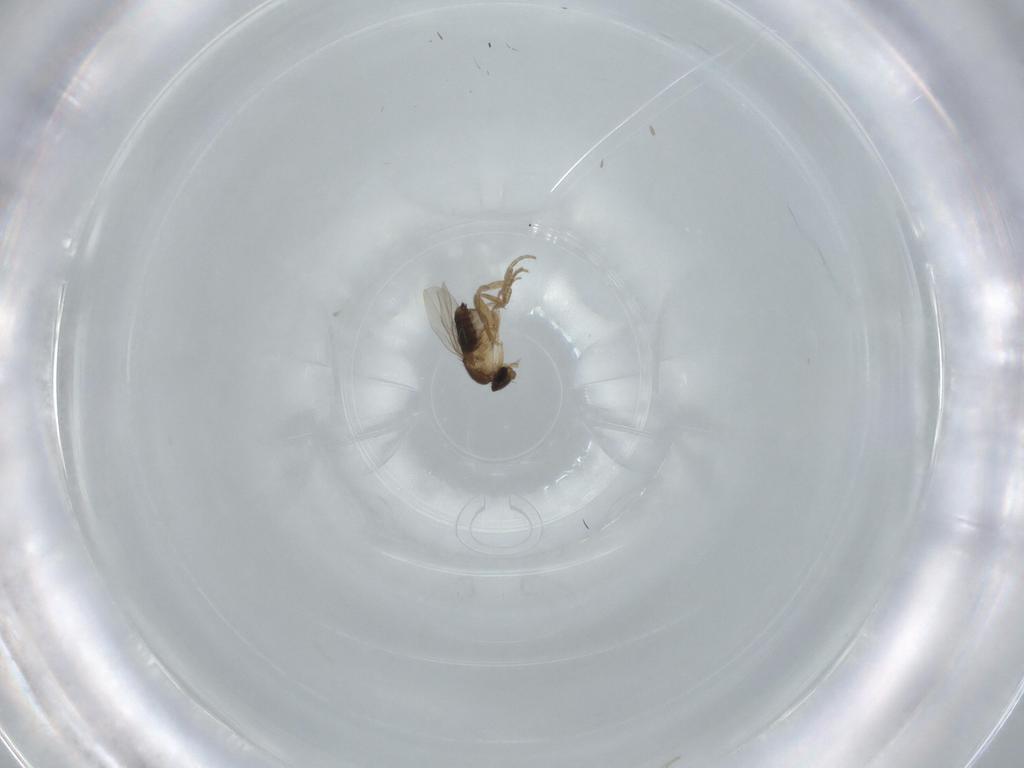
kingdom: Animalia
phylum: Arthropoda
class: Insecta
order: Diptera
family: Phoridae
